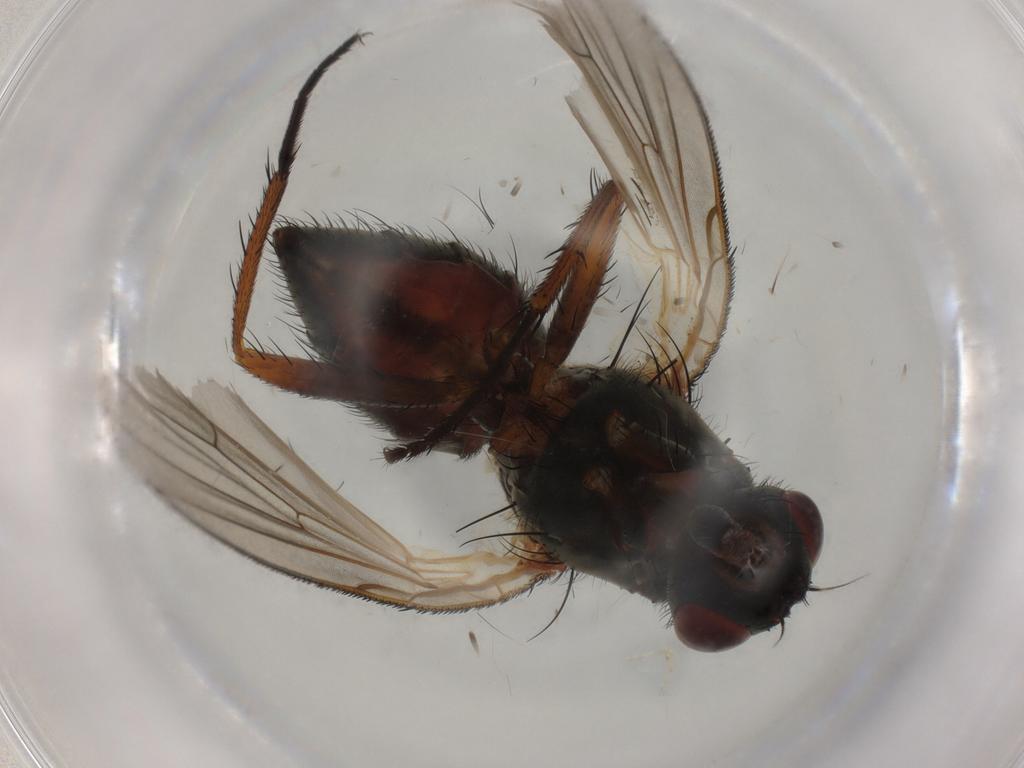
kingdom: Animalia
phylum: Arthropoda
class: Insecta
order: Diptera
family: Anthomyiidae
